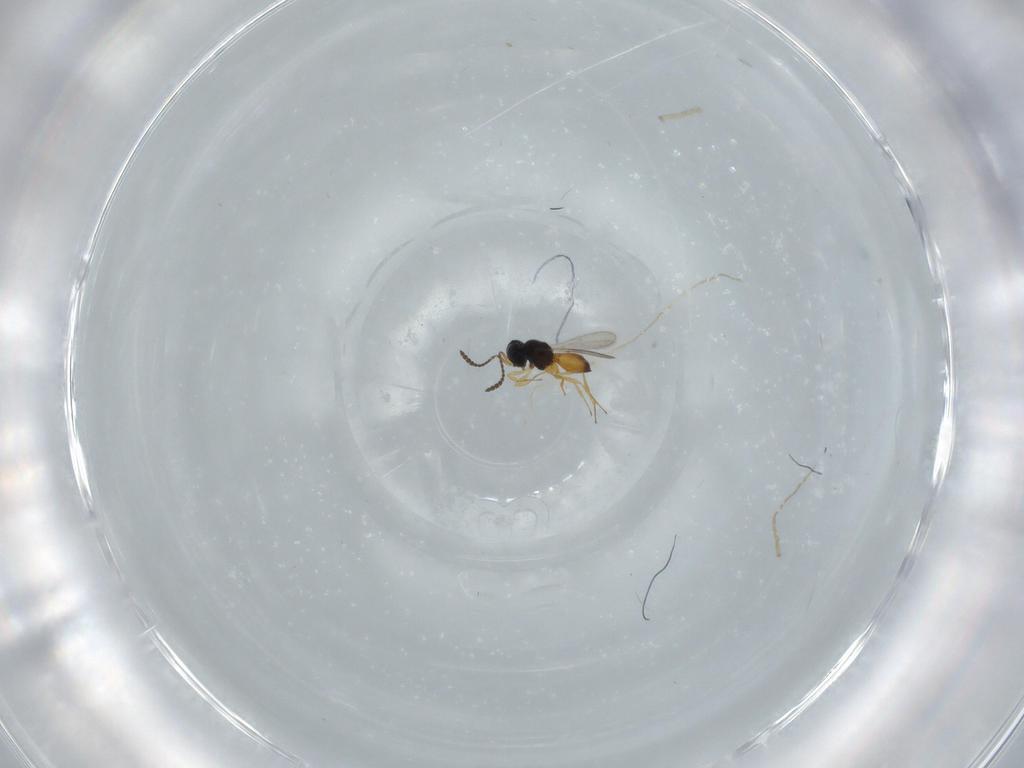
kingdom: Animalia
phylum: Arthropoda
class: Insecta
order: Hymenoptera
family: Scelionidae
